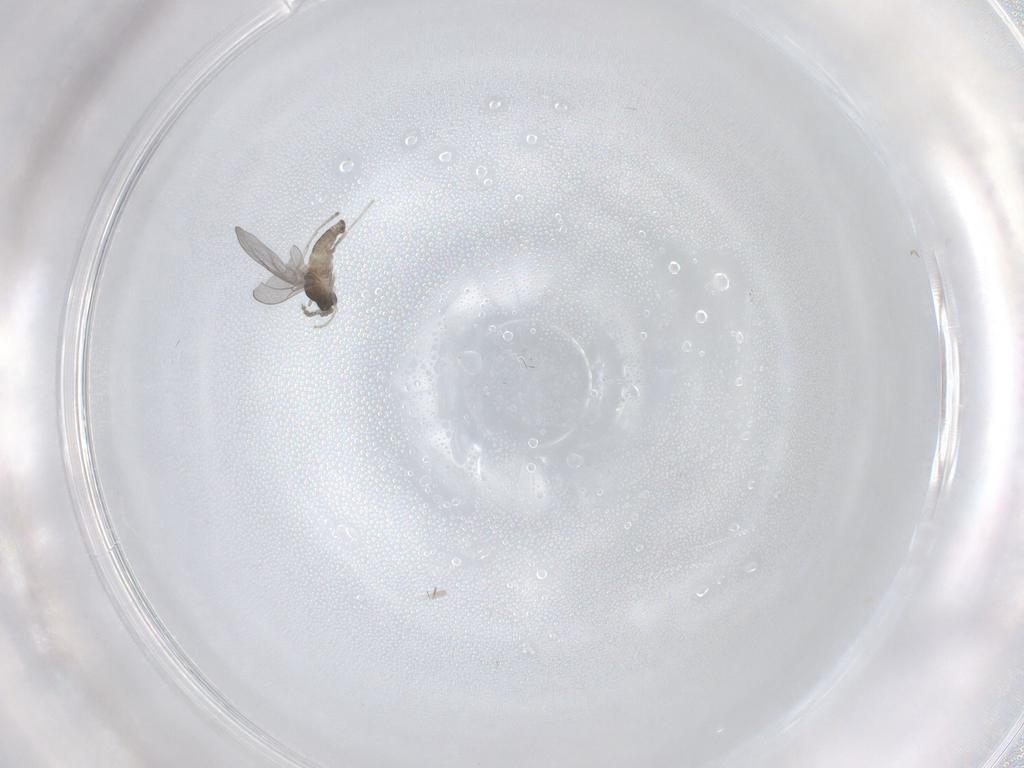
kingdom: Animalia
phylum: Arthropoda
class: Insecta
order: Diptera
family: Cecidomyiidae
